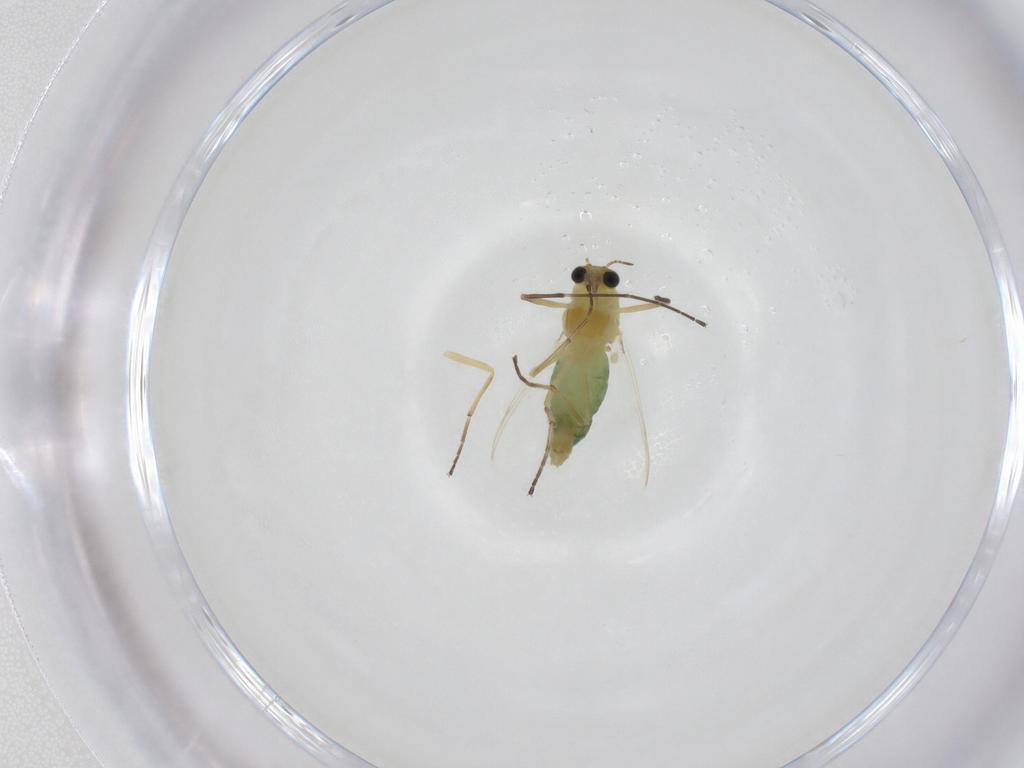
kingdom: Animalia
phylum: Arthropoda
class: Insecta
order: Diptera
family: Chironomidae
